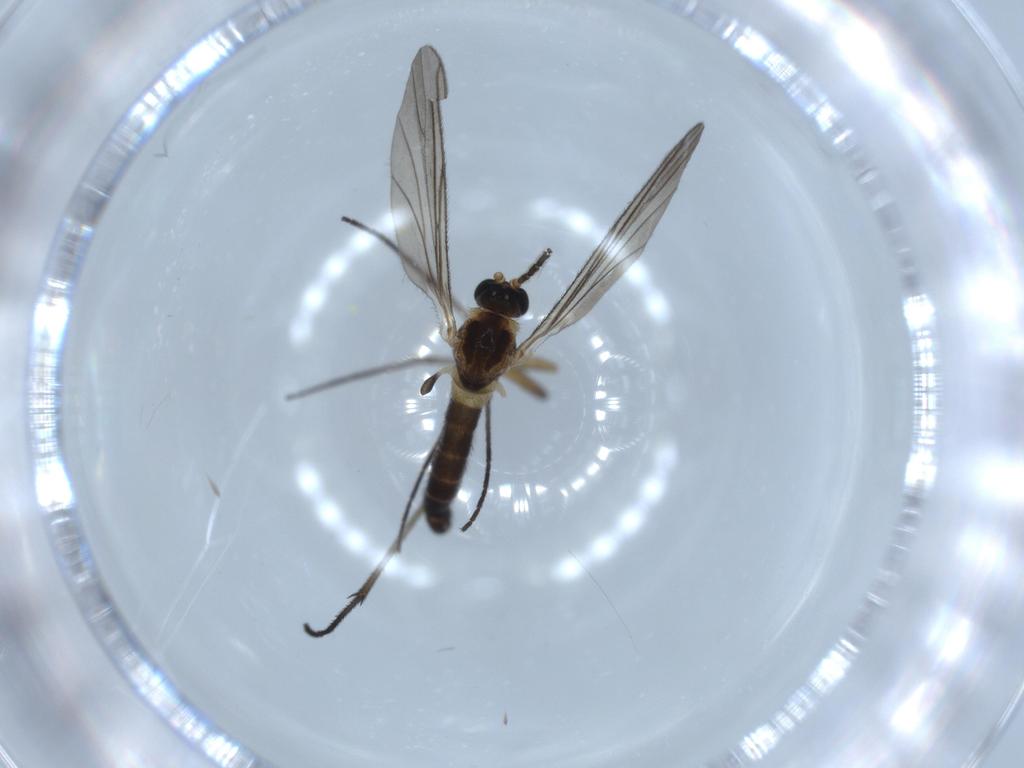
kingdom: Animalia
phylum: Arthropoda
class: Insecta
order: Diptera
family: Sciaridae
